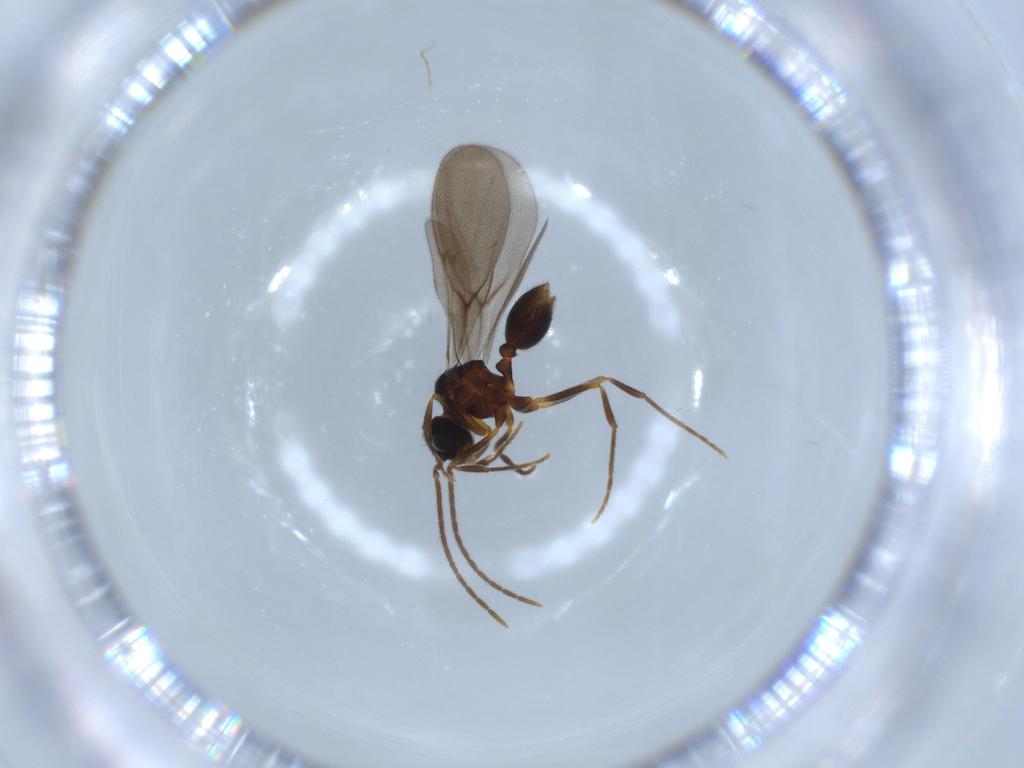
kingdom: Animalia
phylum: Arthropoda
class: Insecta
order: Hymenoptera
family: Formicidae
